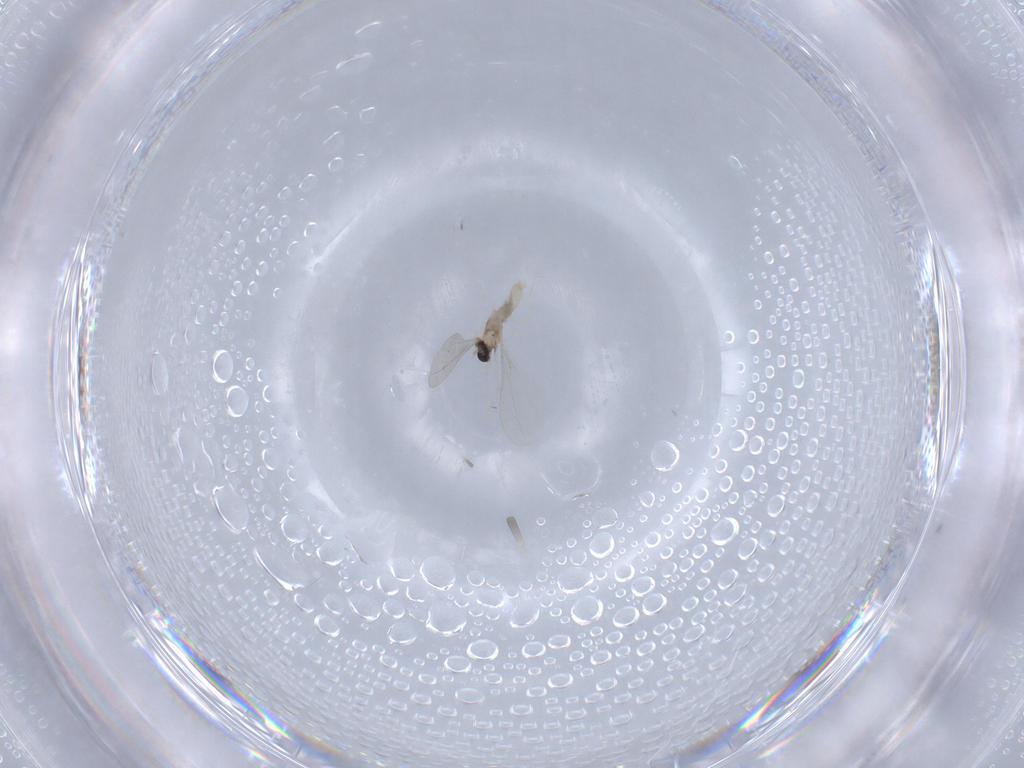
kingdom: Animalia
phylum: Arthropoda
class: Insecta
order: Diptera
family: Cecidomyiidae
